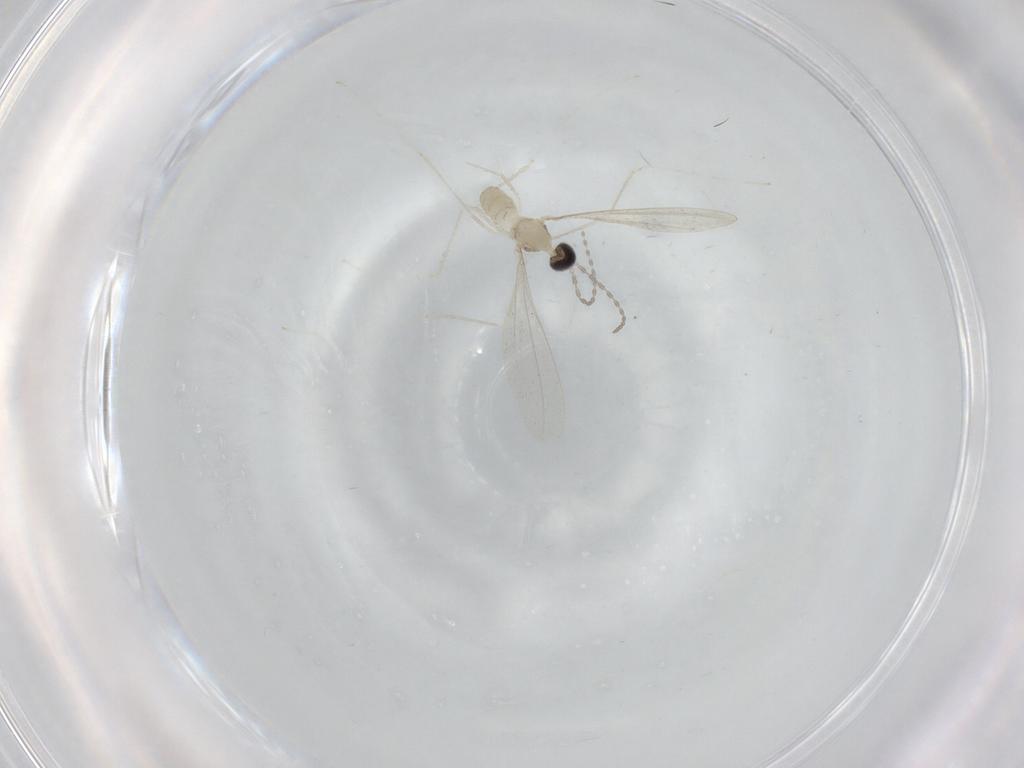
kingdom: Animalia
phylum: Arthropoda
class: Insecta
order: Diptera
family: Cecidomyiidae
